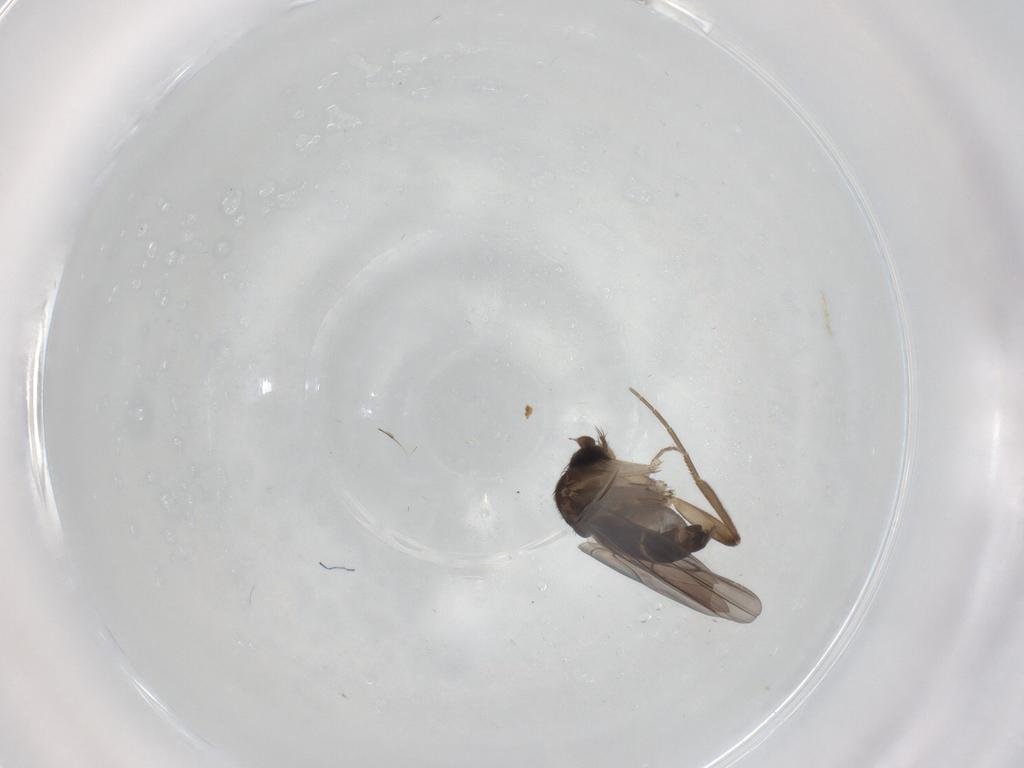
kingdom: Animalia
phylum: Arthropoda
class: Insecta
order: Diptera
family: Phoridae
